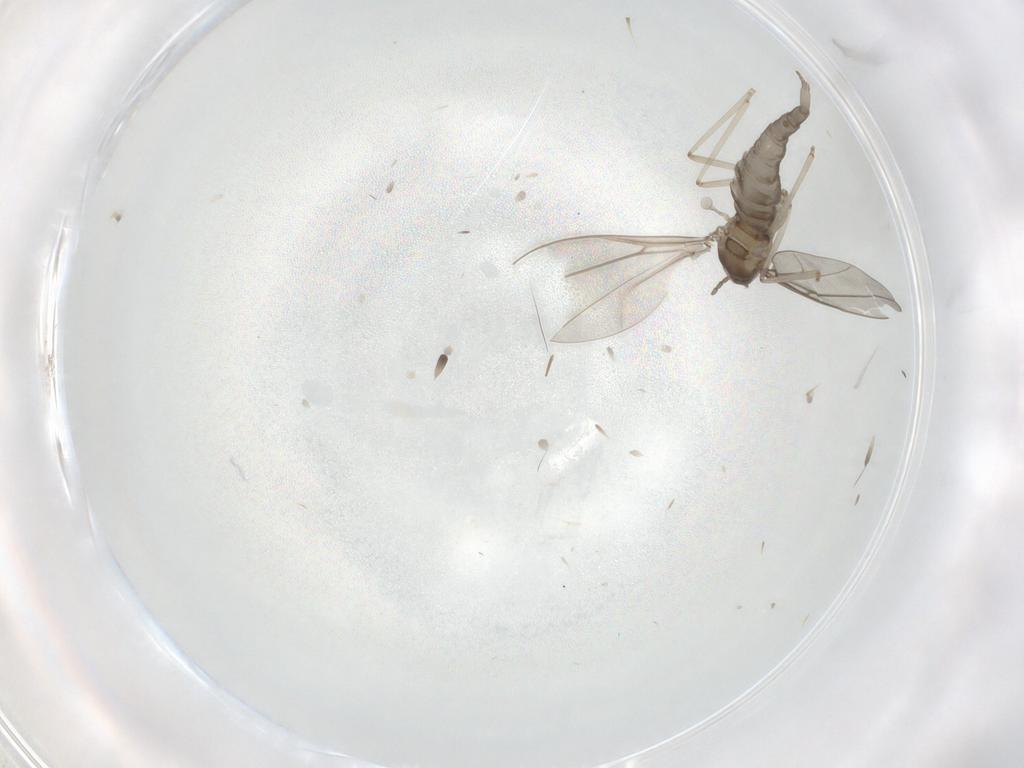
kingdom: Animalia
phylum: Arthropoda
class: Insecta
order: Diptera
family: Cecidomyiidae
